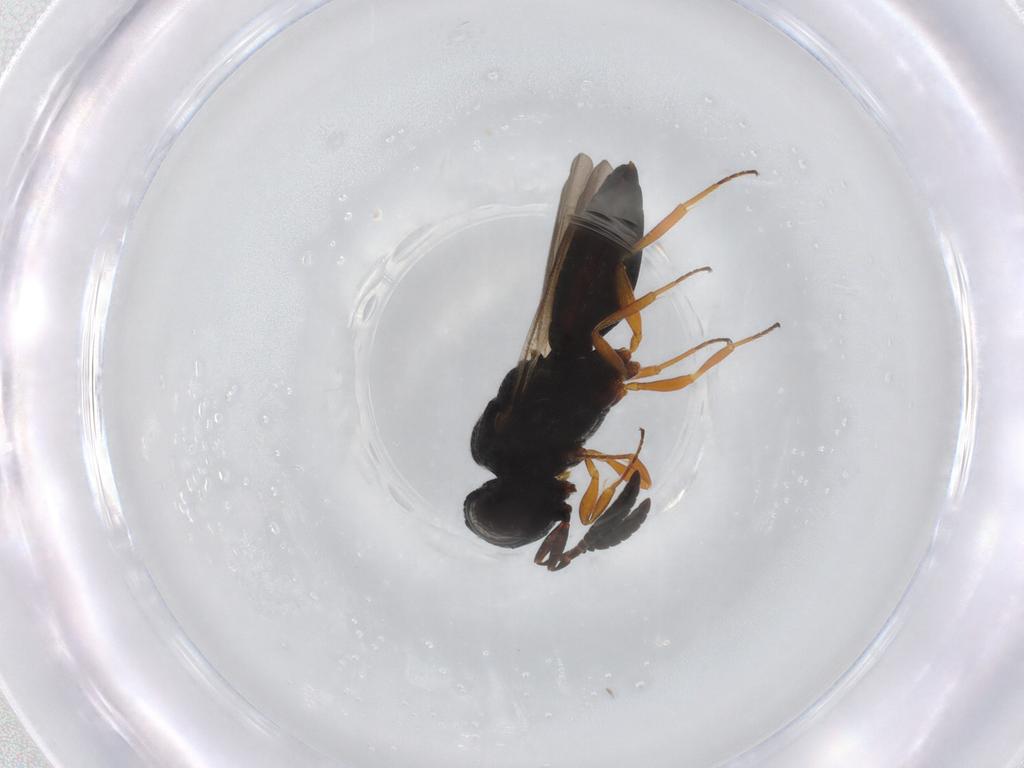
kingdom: Animalia
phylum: Arthropoda
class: Insecta
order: Hymenoptera
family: Scelionidae
